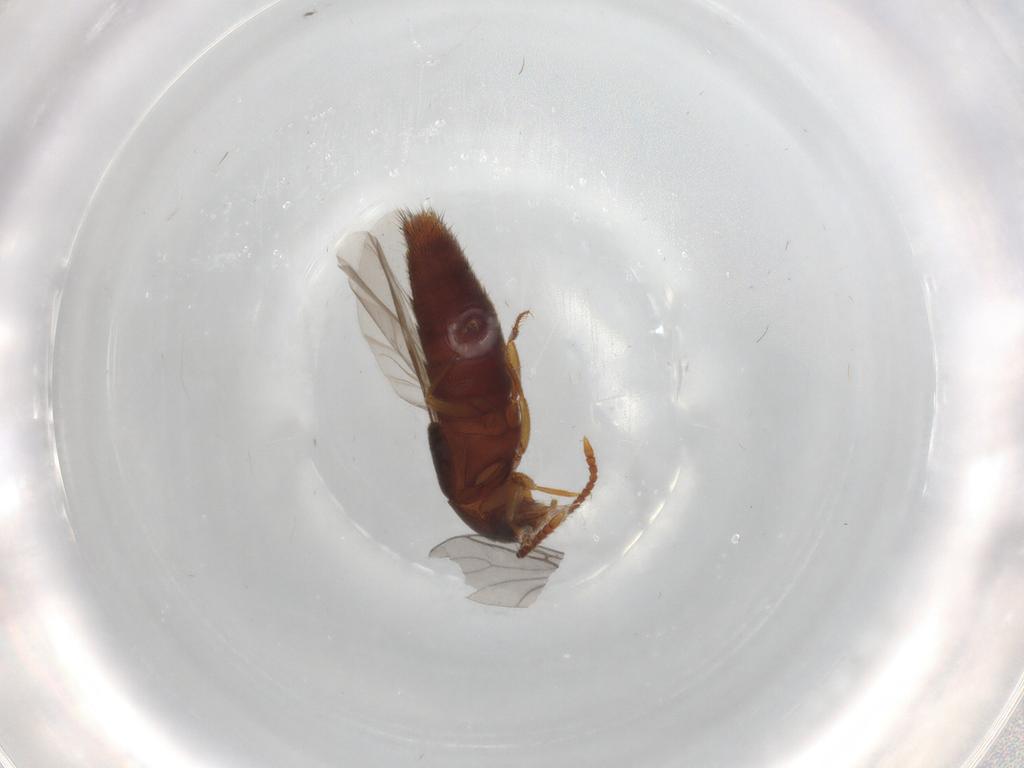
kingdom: Animalia
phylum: Arthropoda
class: Insecta
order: Coleoptera
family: Staphylinidae
